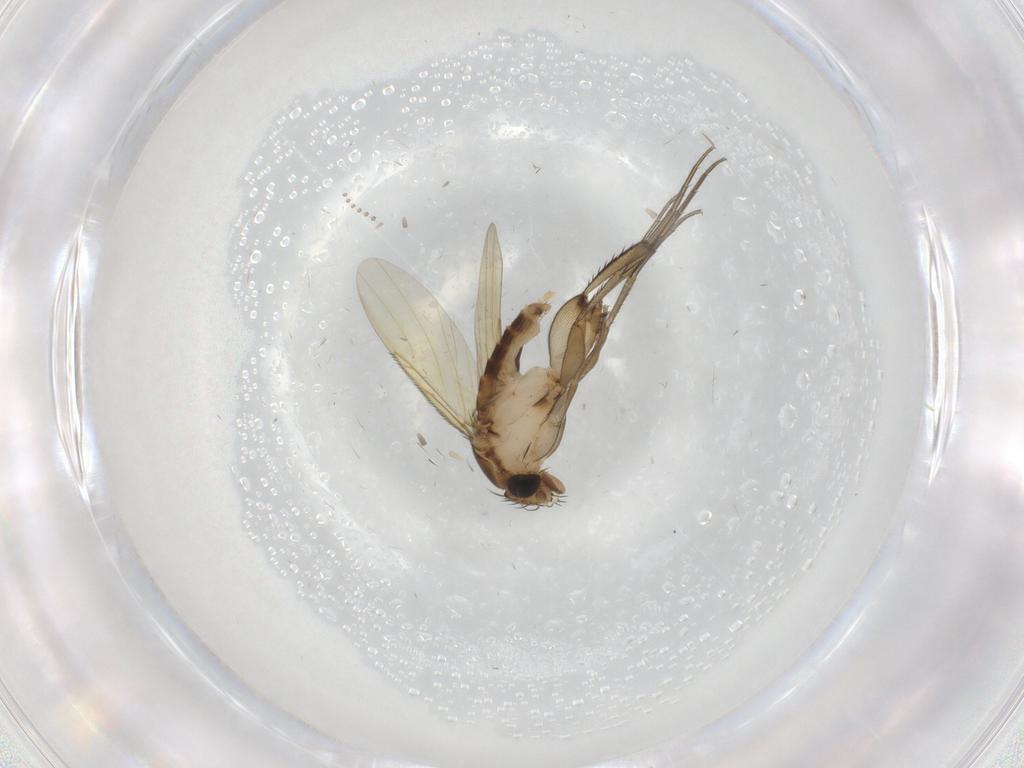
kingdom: Animalia
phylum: Arthropoda
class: Insecta
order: Diptera
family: Phoridae
